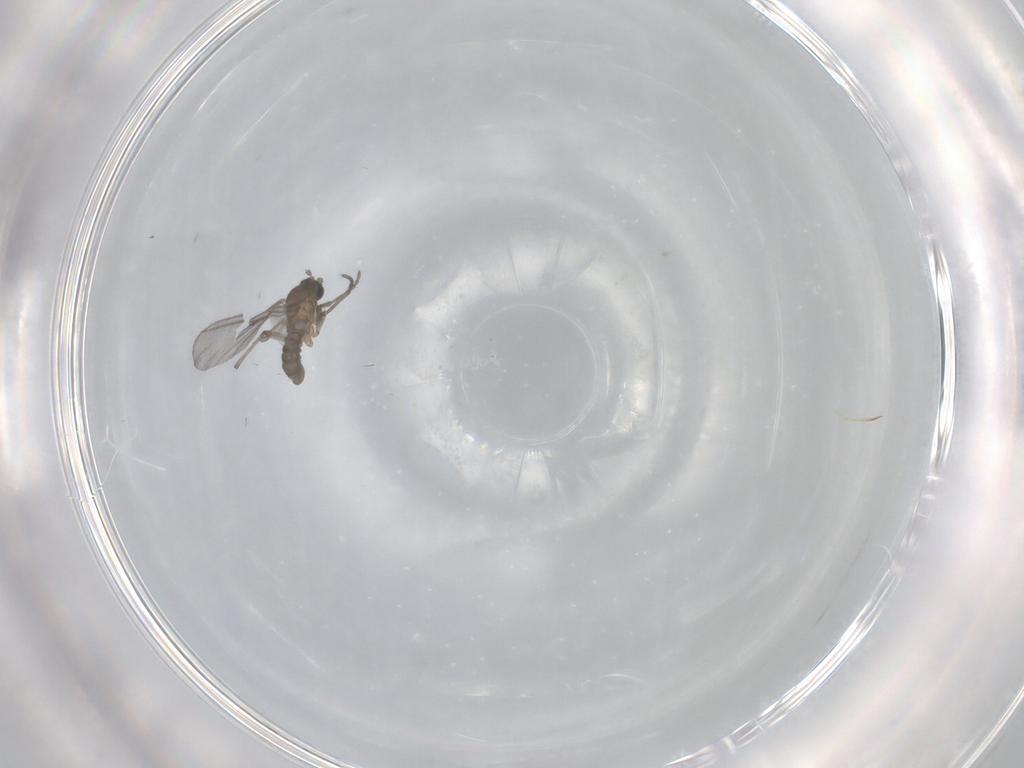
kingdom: Animalia
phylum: Arthropoda
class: Insecta
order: Diptera
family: Sciaridae
